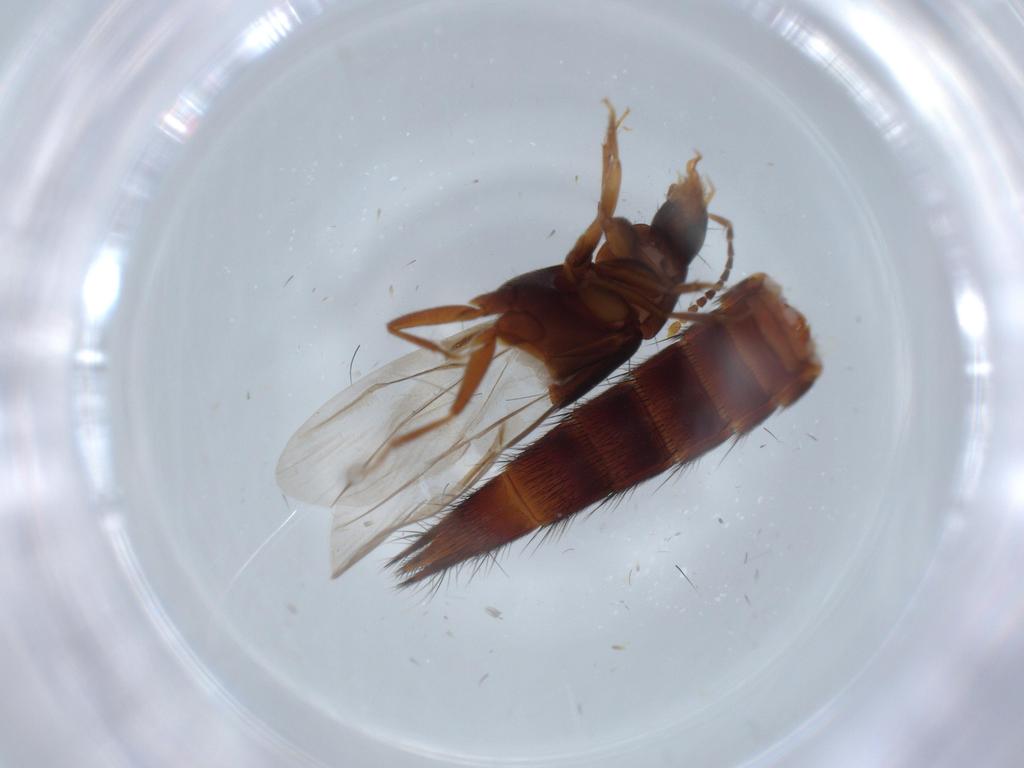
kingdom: Animalia
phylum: Arthropoda
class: Insecta
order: Coleoptera
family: Staphylinidae
